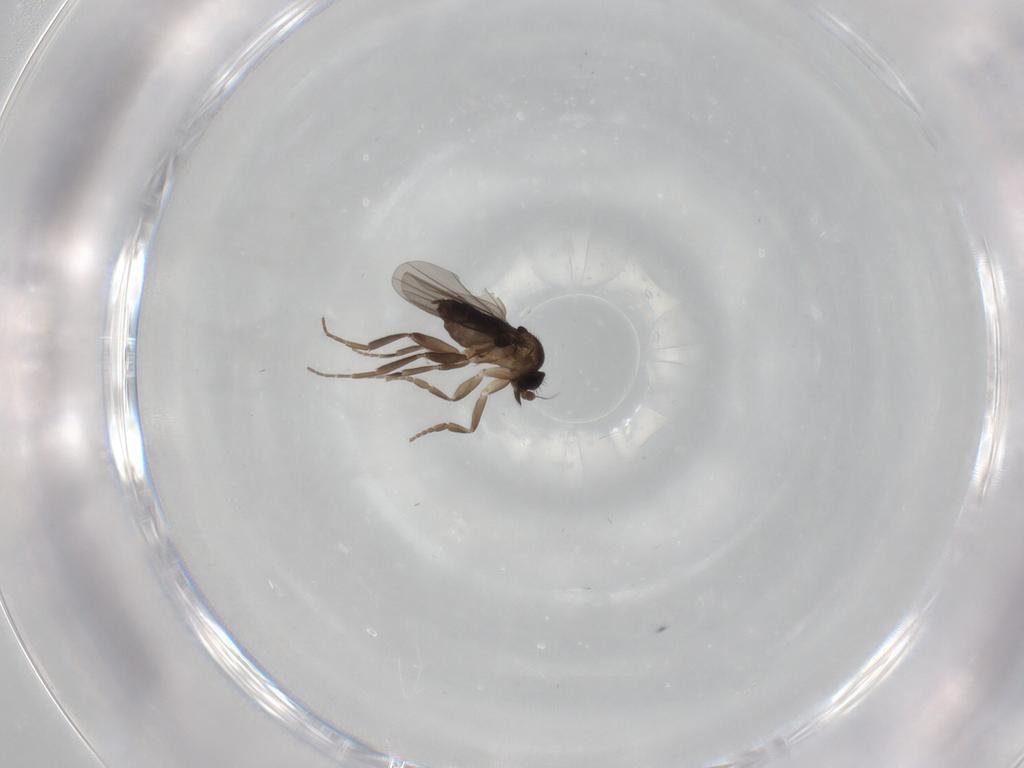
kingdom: Animalia
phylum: Arthropoda
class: Insecta
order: Diptera
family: Phoridae
